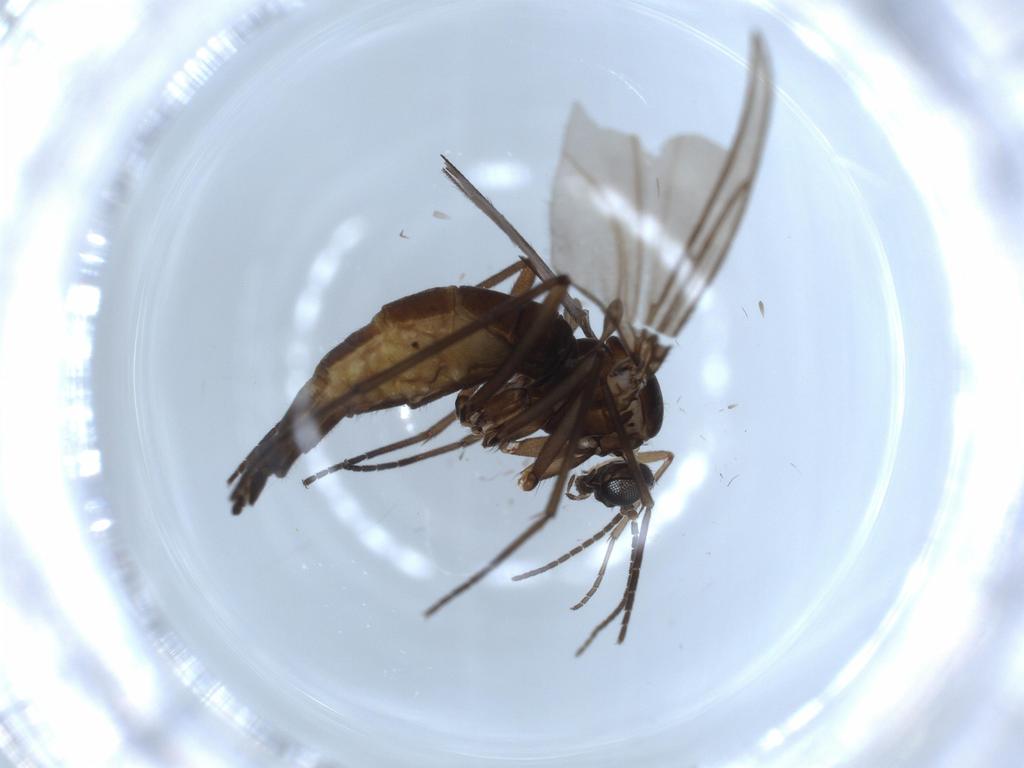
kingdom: Animalia
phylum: Arthropoda
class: Insecta
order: Diptera
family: Sciaridae
